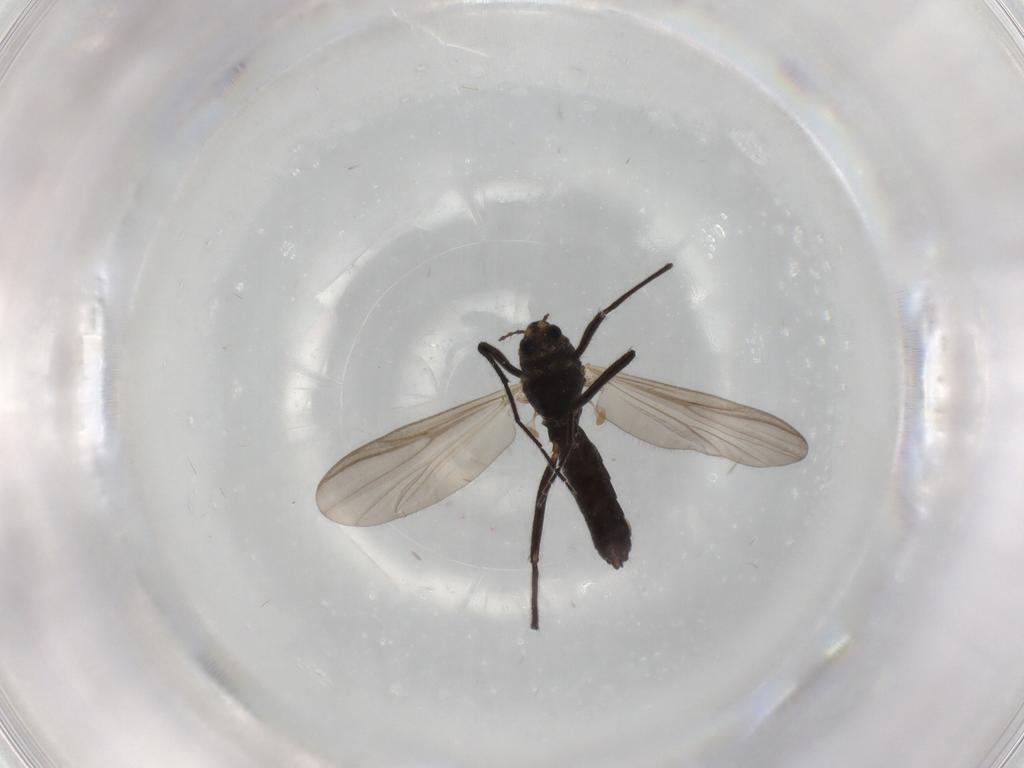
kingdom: Animalia
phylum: Arthropoda
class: Insecta
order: Diptera
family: Chironomidae
